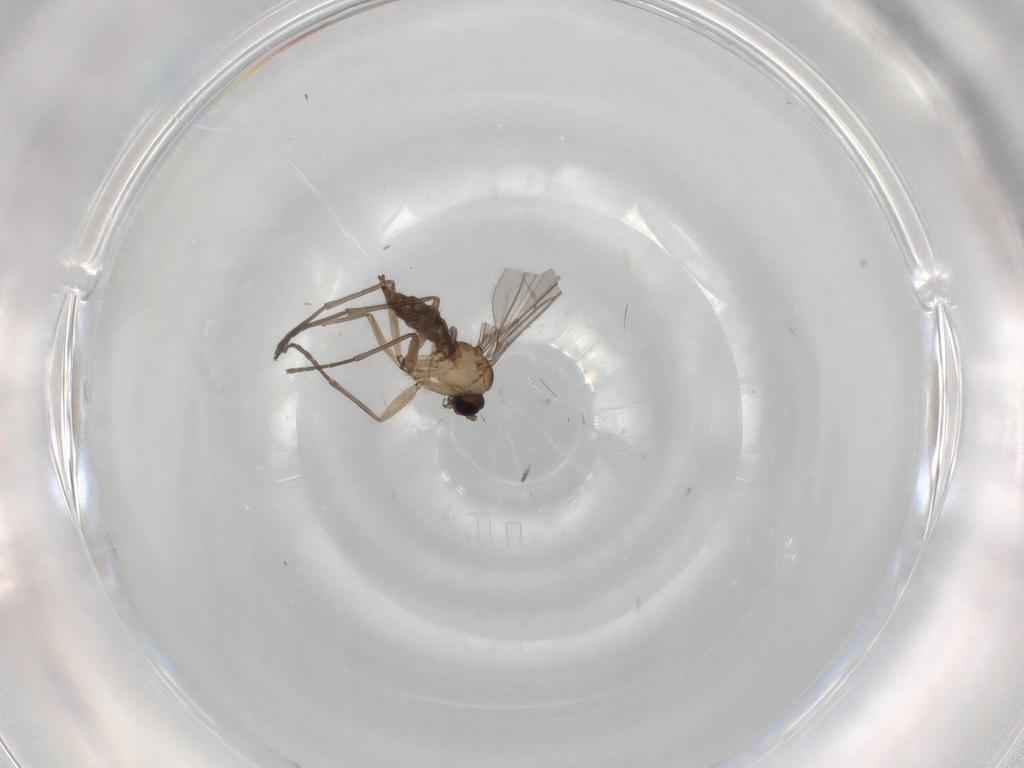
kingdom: Animalia
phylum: Arthropoda
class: Insecta
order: Diptera
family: Sciaridae
